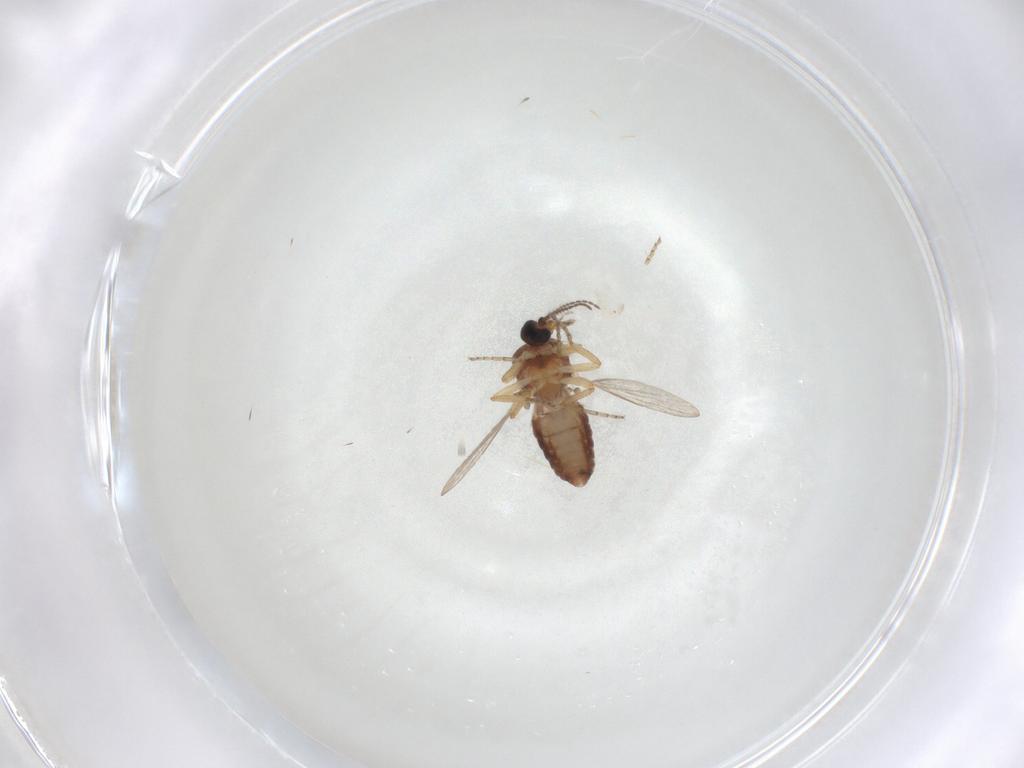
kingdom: Animalia
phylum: Arthropoda
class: Insecta
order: Diptera
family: Ceratopogonidae
